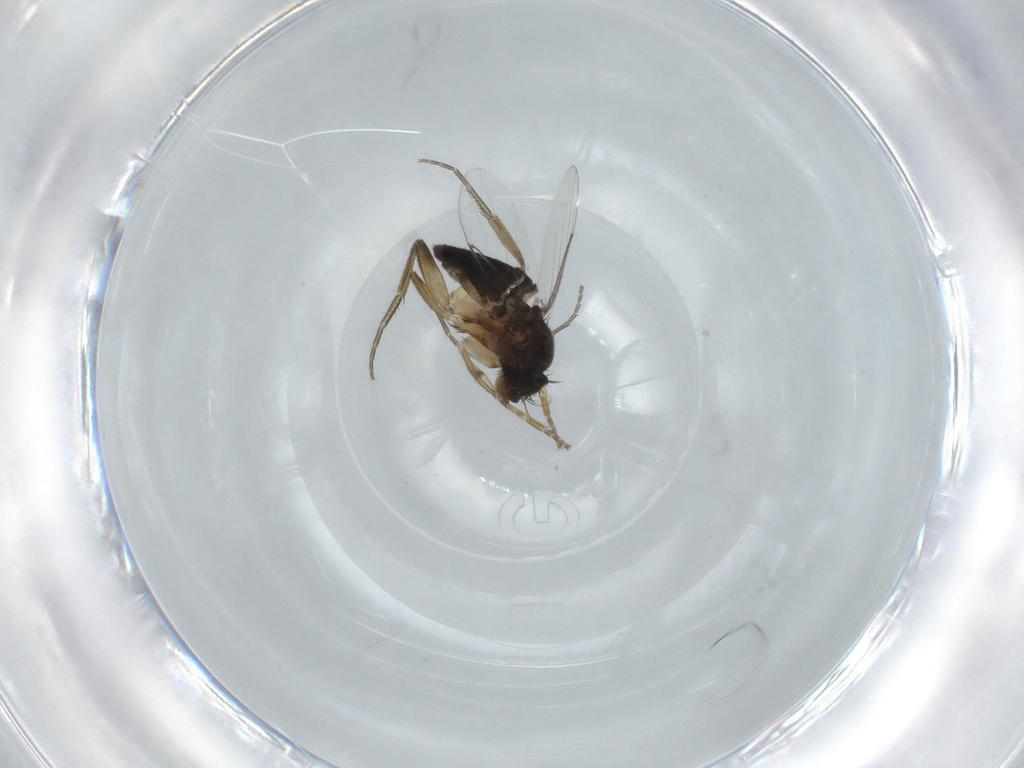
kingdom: Animalia
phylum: Arthropoda
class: Insecta
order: Diptera
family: Phoridae
